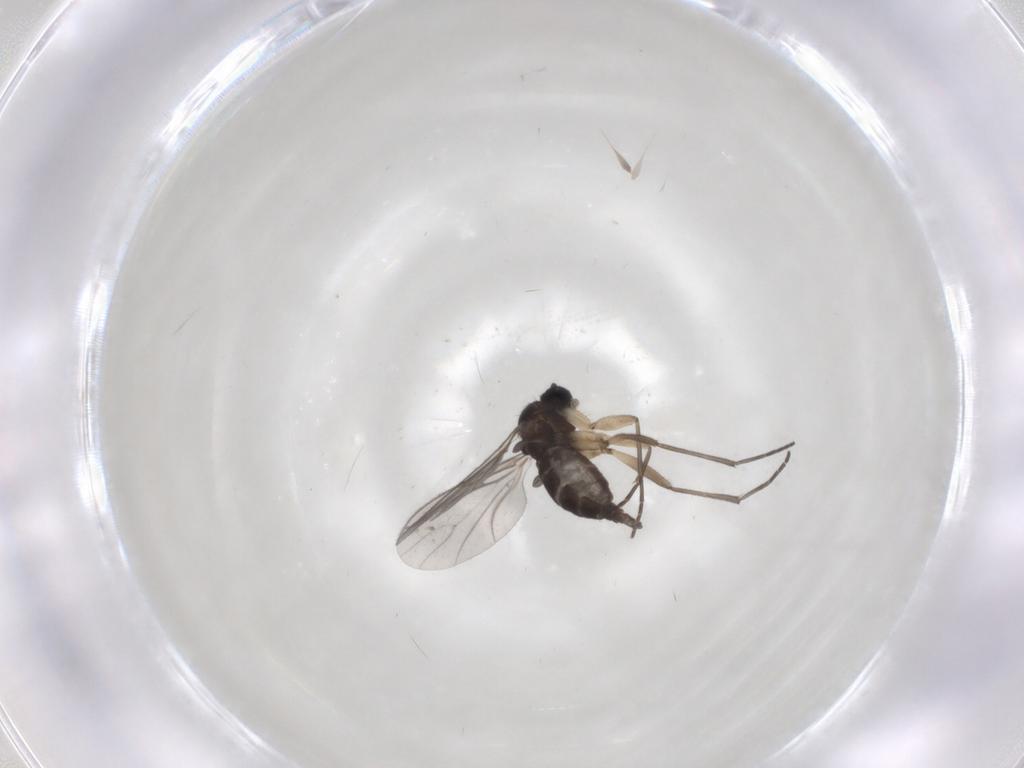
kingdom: Animalia
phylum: Arthropoda
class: Insecta
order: Diptera
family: Sciaridae
